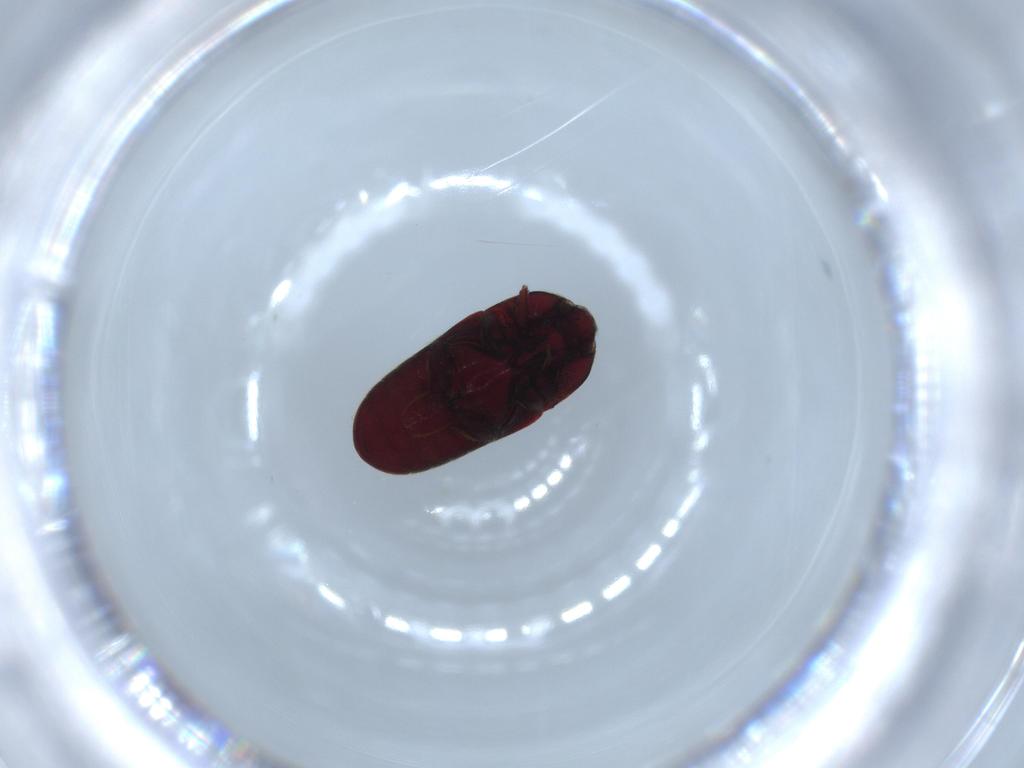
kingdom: Animalia
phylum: Arthropoda
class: Insecta
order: Coleoptera
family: Throscidae
